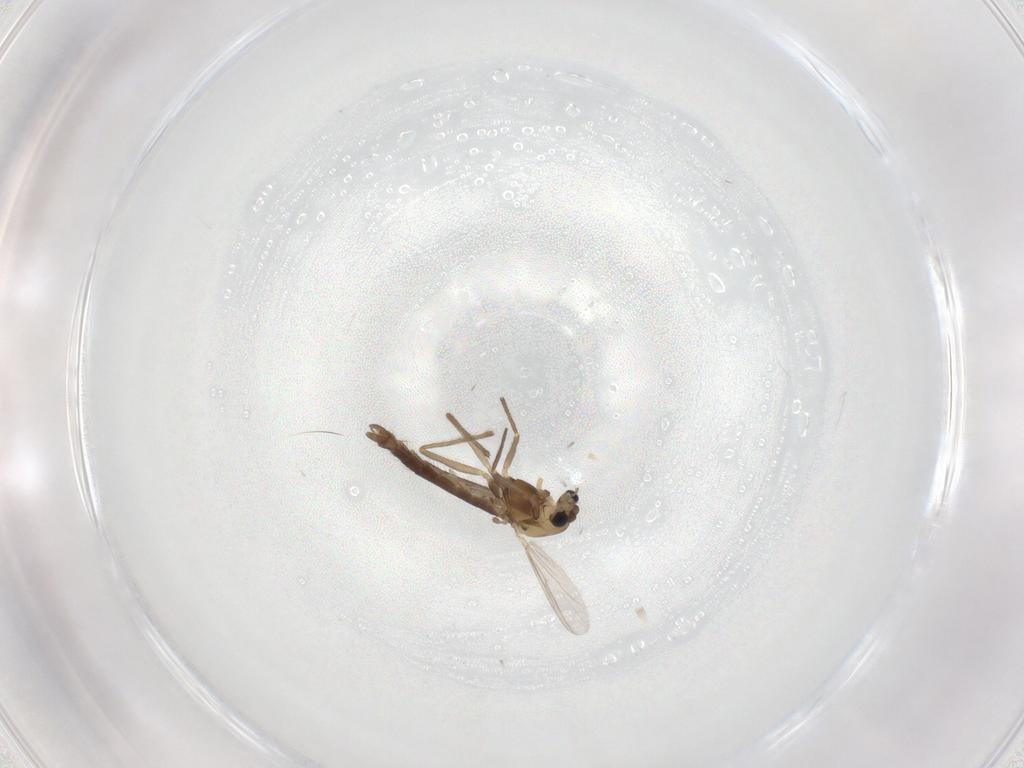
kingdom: Animalia
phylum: Arthropoda
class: Insecta
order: Diptera
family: Chironomidae
